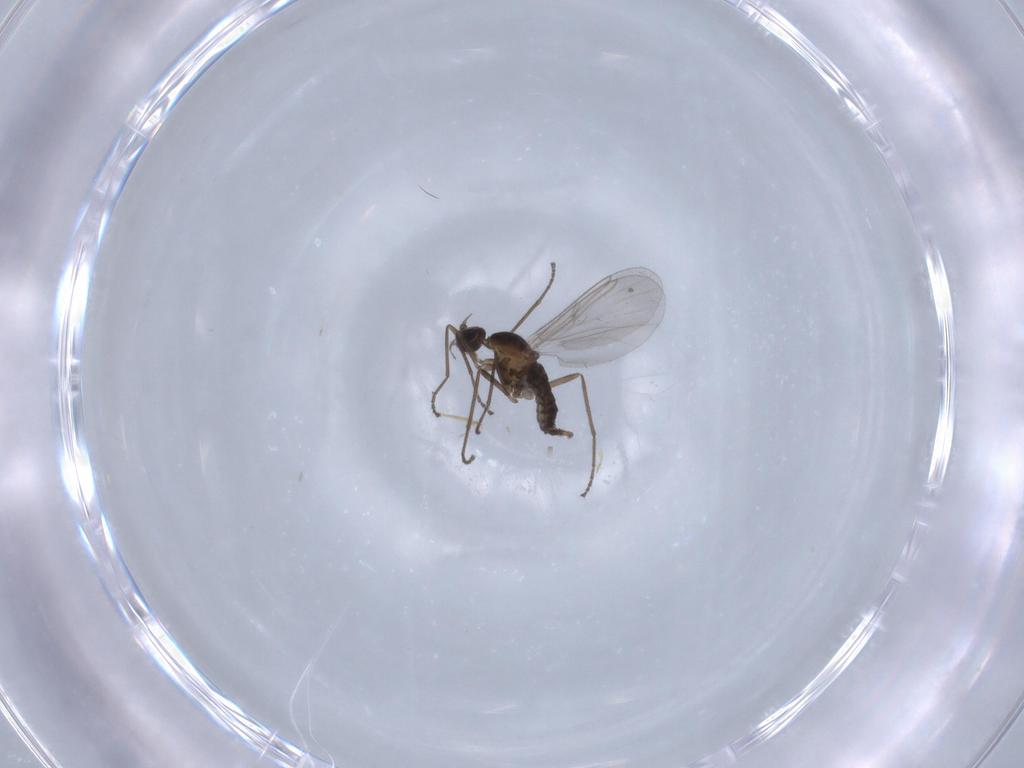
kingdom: Animalia
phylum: Arthropoda
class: Insecta
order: Diptera
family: Cecidomyiidae
